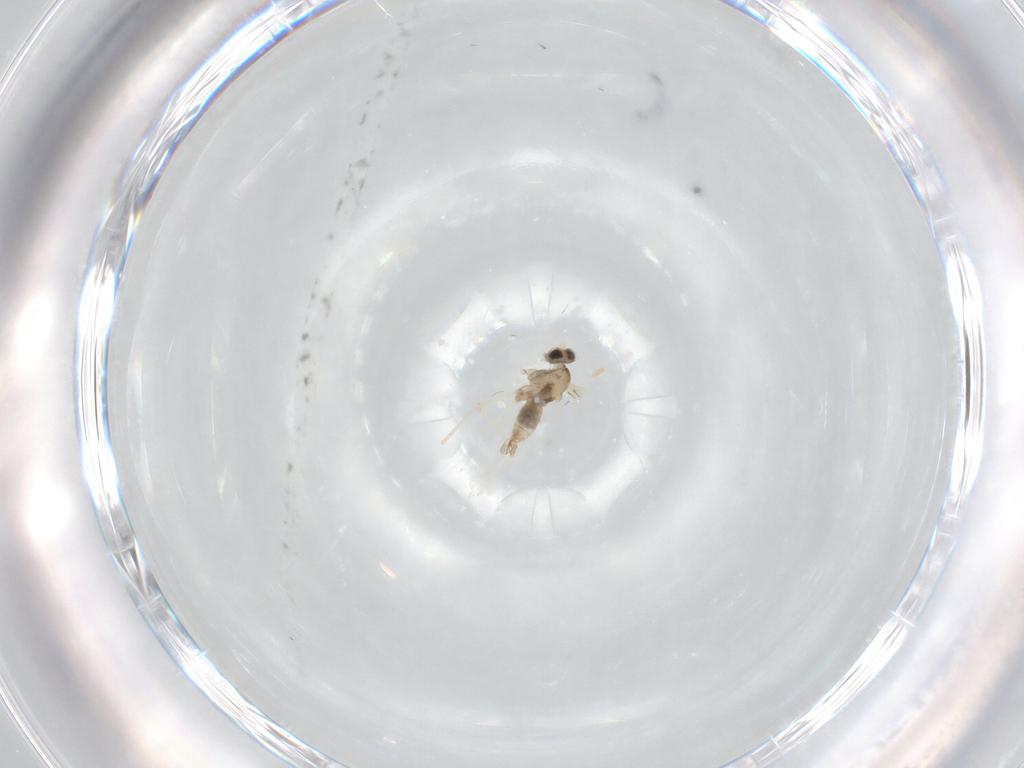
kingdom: Animalia
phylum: Arthropoda
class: Insecta
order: Diptera
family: Cecidomyiidae
